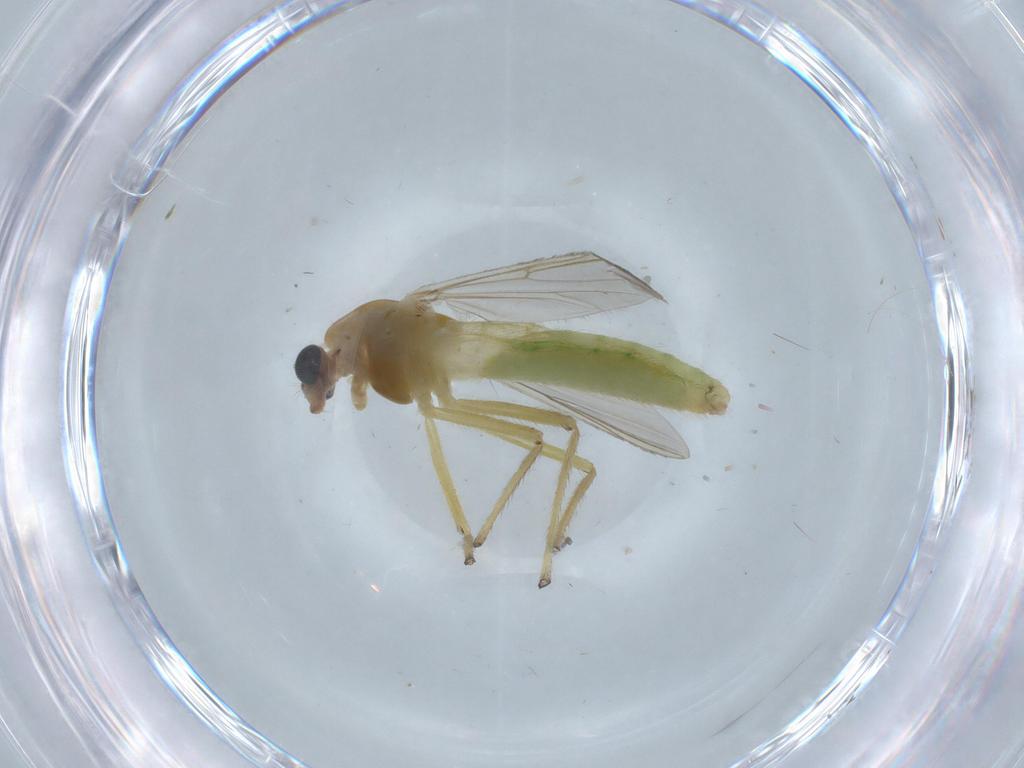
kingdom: Animalia
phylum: Arthropoda
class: Insecta
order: Diptera
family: Chironomidae
